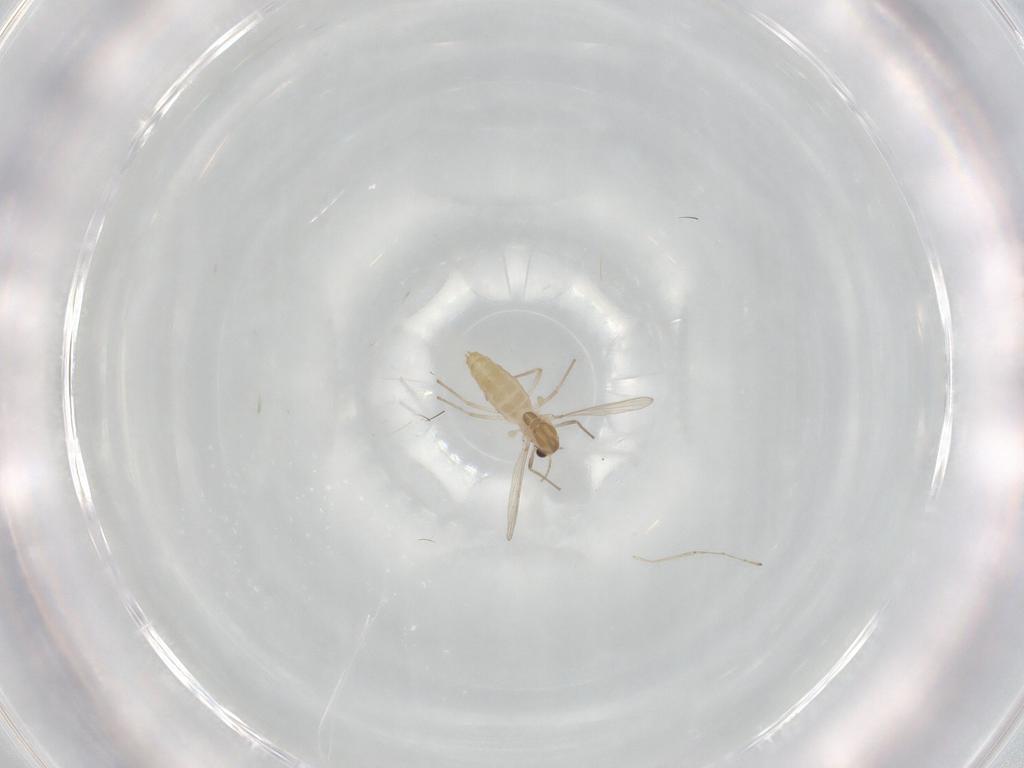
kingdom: Animalia
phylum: Arthropoda
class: Insecta
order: Diptera
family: Chironomidae
